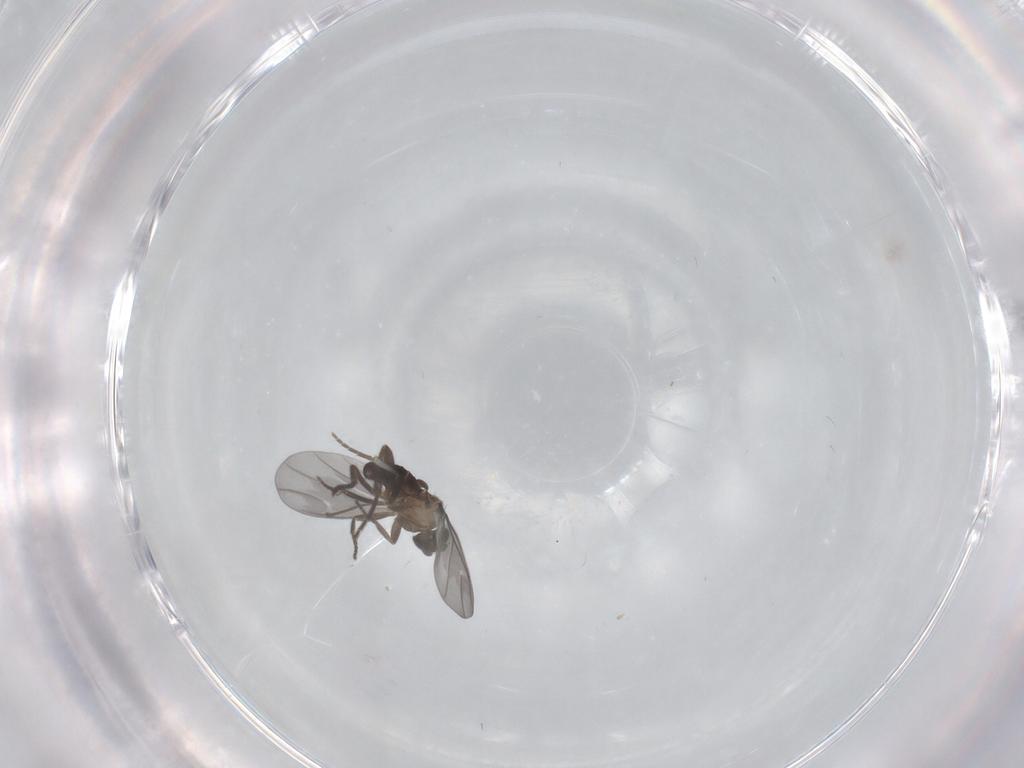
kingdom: Animalia
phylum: Arthropoda
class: Insecta
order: Diptera
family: Phoridae
